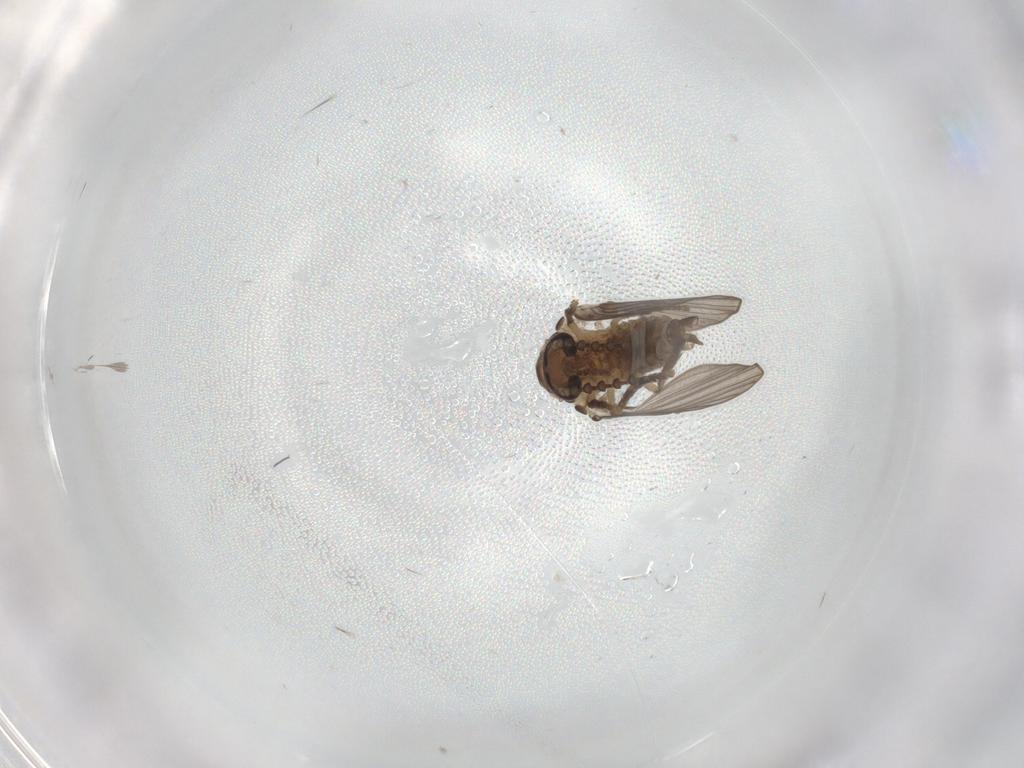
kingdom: Animalia
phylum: Arthropoda
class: Insecta
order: Diptera
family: Psychodidae
